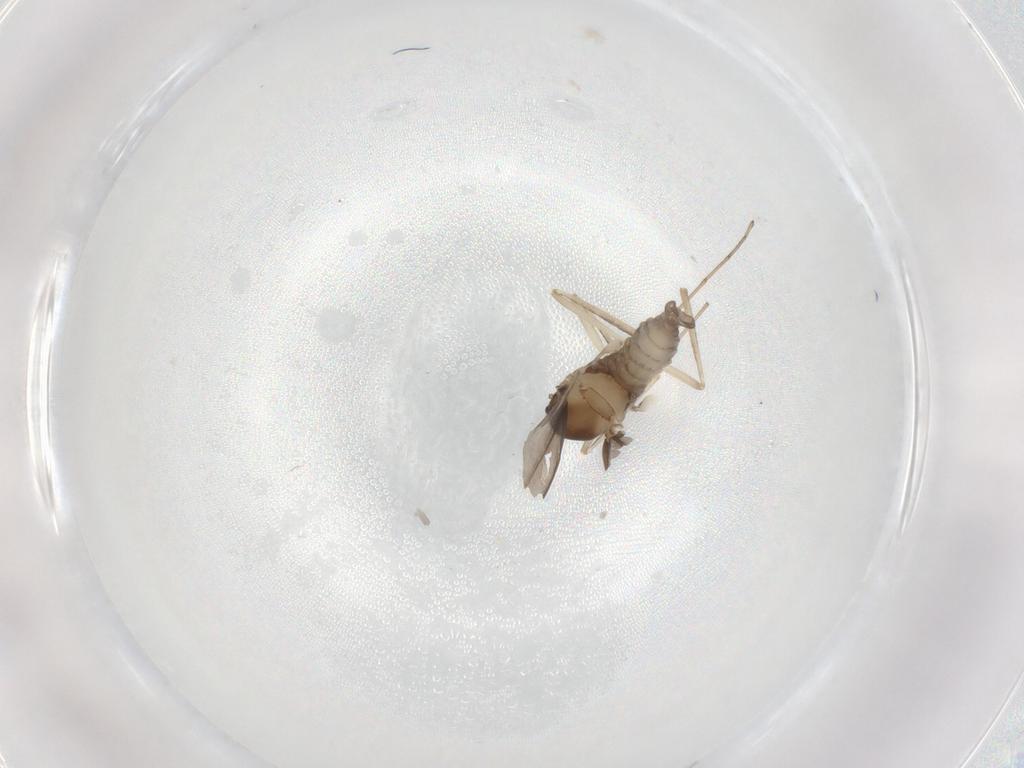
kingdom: Animalia
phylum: Arthropoda
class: Insecta
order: Diptera
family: Cecidomyiidae
